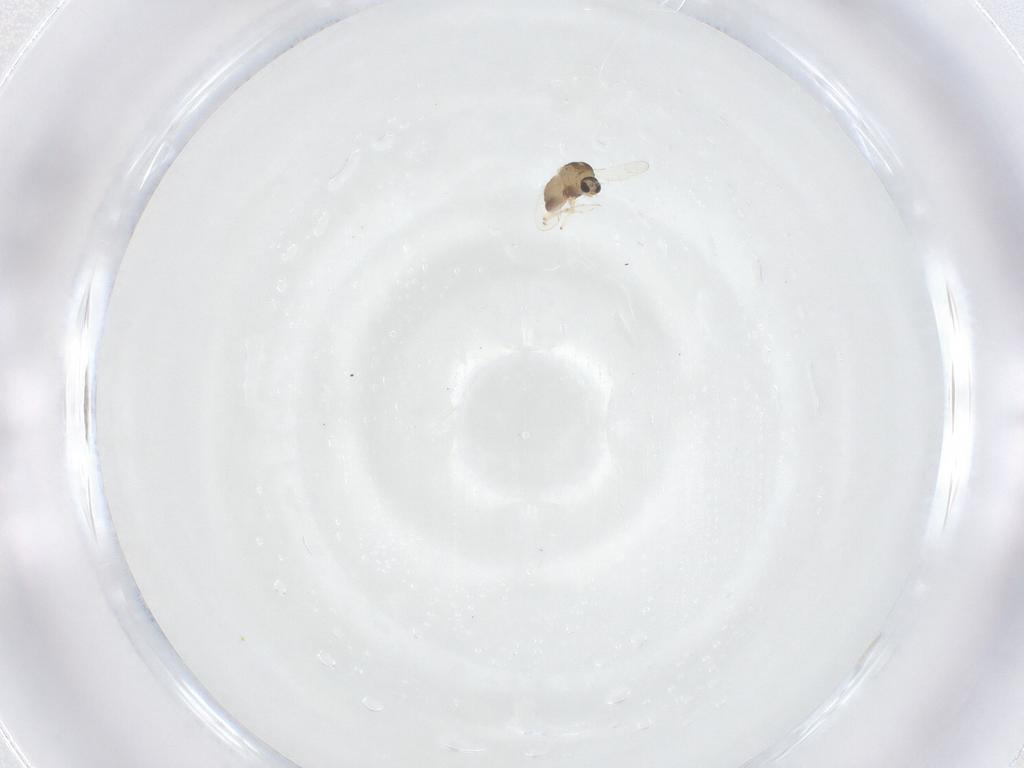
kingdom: Animalia
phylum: Arthropoda
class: Insecta
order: Diptera
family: Chironomidae
